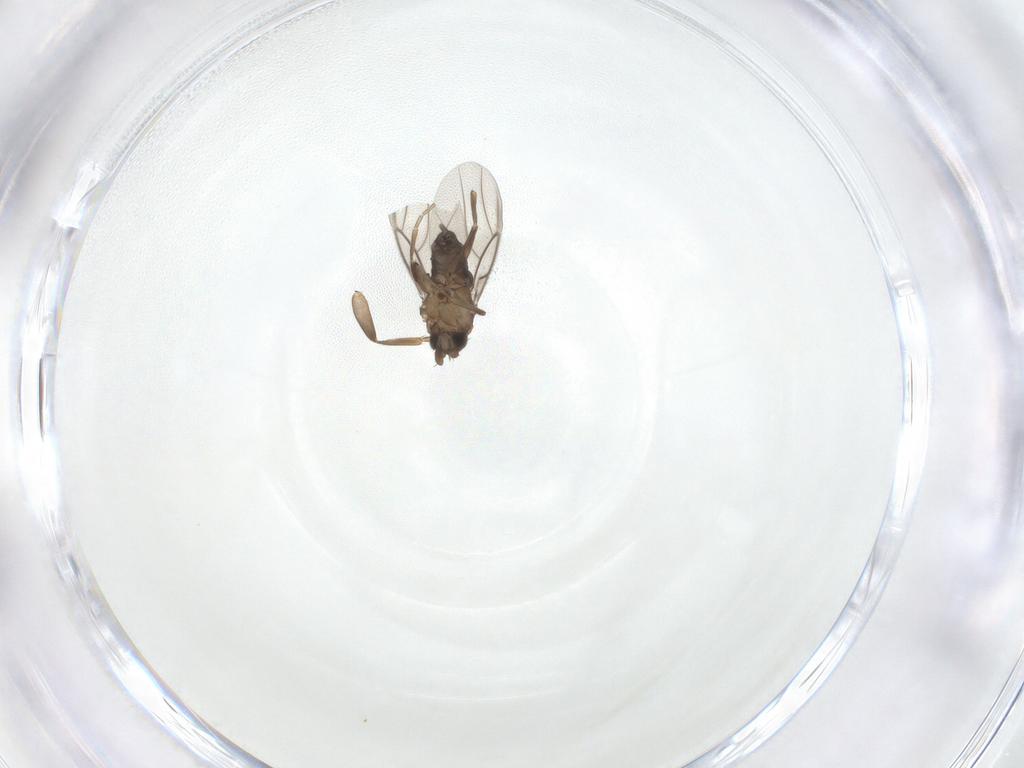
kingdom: Animalia
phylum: Arthropoda
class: Insecta
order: Diptera
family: Phoridae
